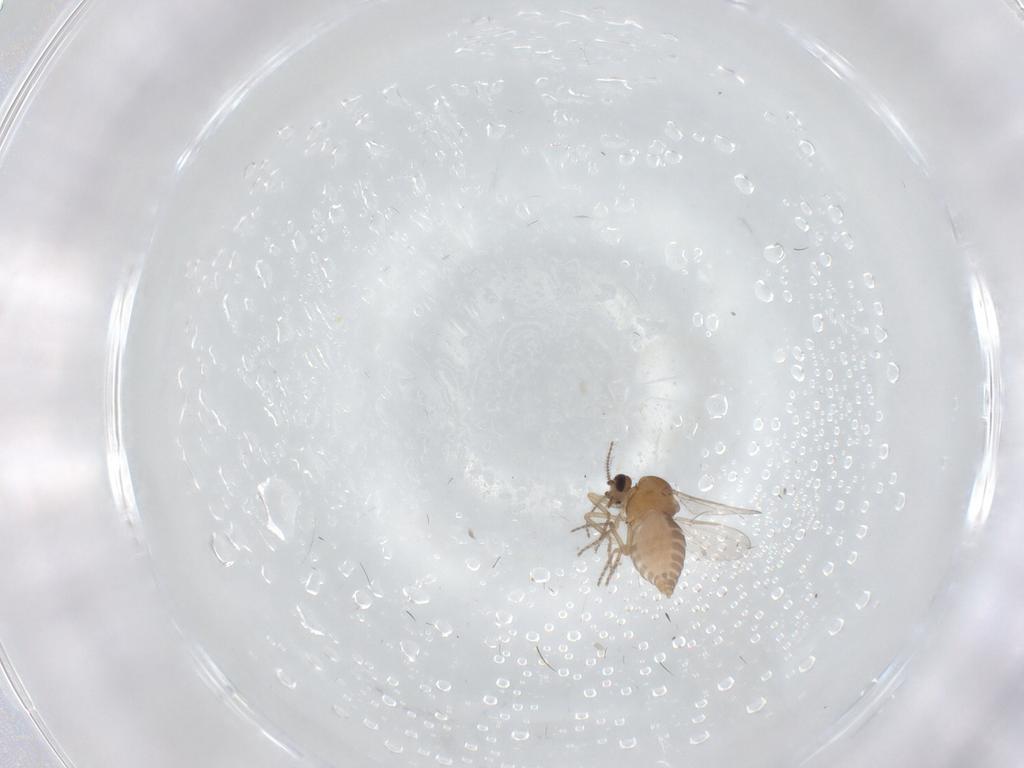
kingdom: Animalia
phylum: Arthropoda
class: Insecta
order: Diptera
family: Ceratopogonidae
